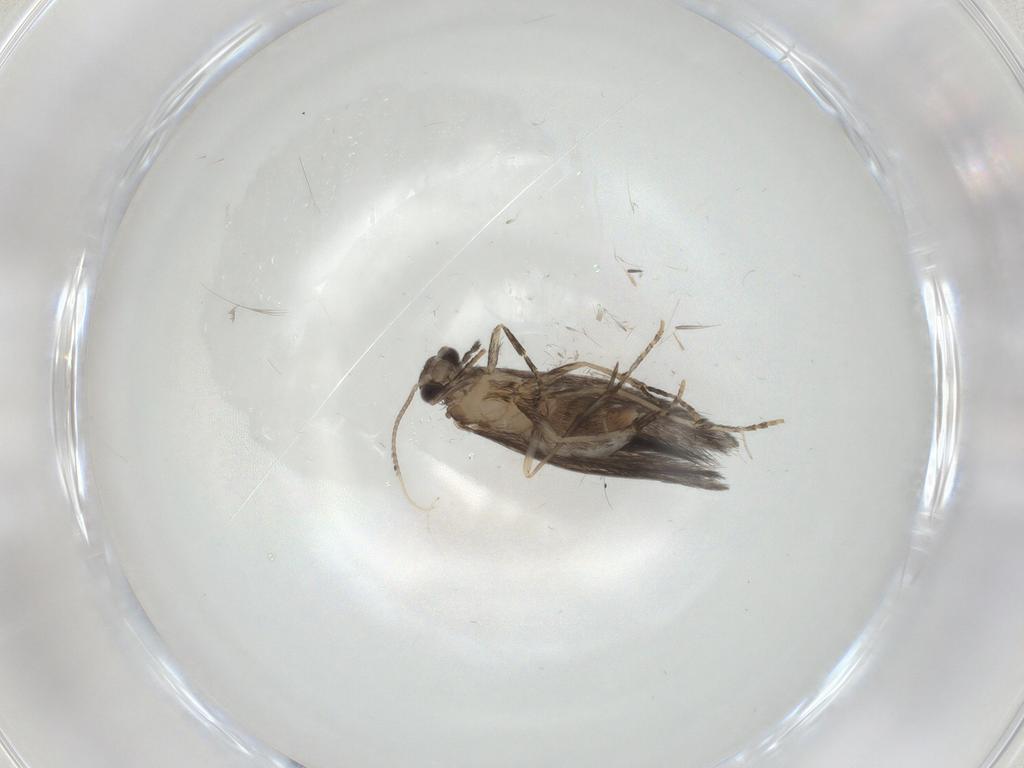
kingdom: Animalia
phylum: Arthropoda
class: Insecta
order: Trichoptera
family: Hydroptilidae
